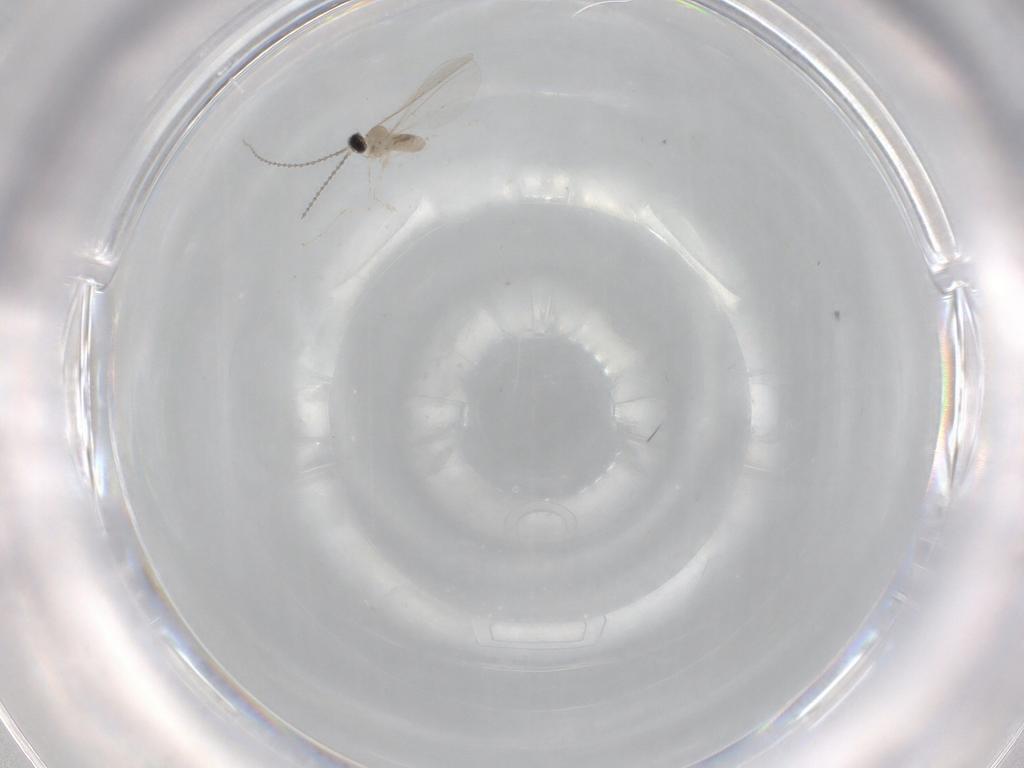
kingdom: Animalia
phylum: Arthropoda
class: Insecta
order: Diptera
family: Cecidomyiidae
